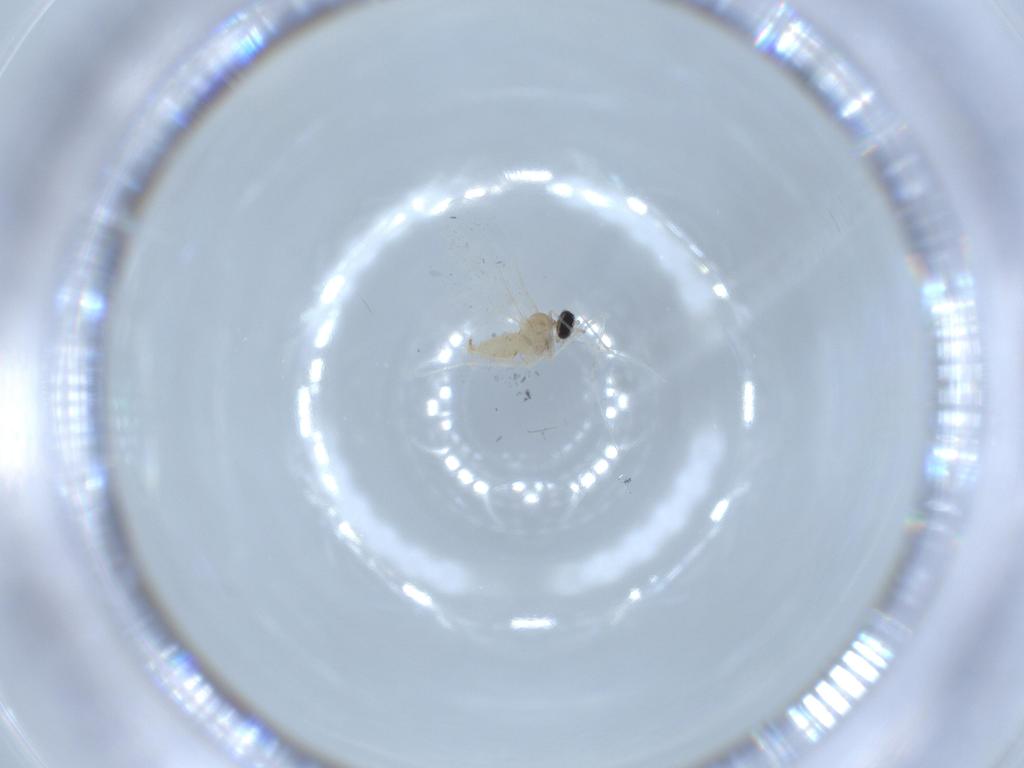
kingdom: Animalia
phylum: Arthropoda
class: Insecta
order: Diptera
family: Cecidomyiidae
